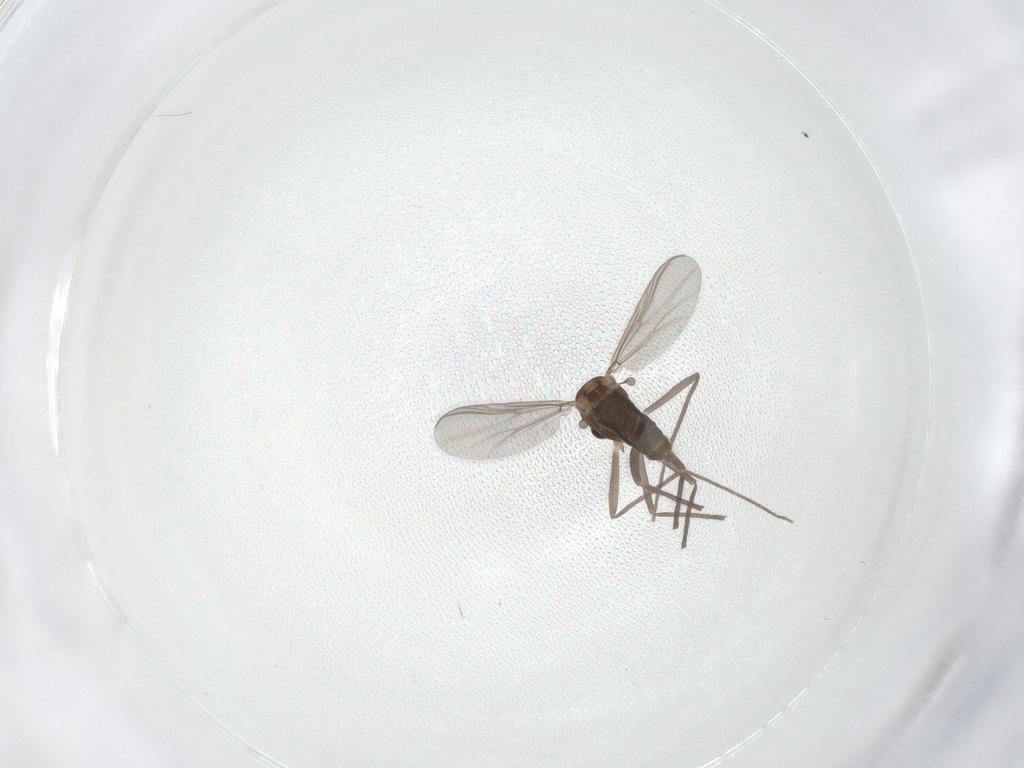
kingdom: Animalia
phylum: Arthropoda
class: Insecta
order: Diptera
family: Chironomidae
